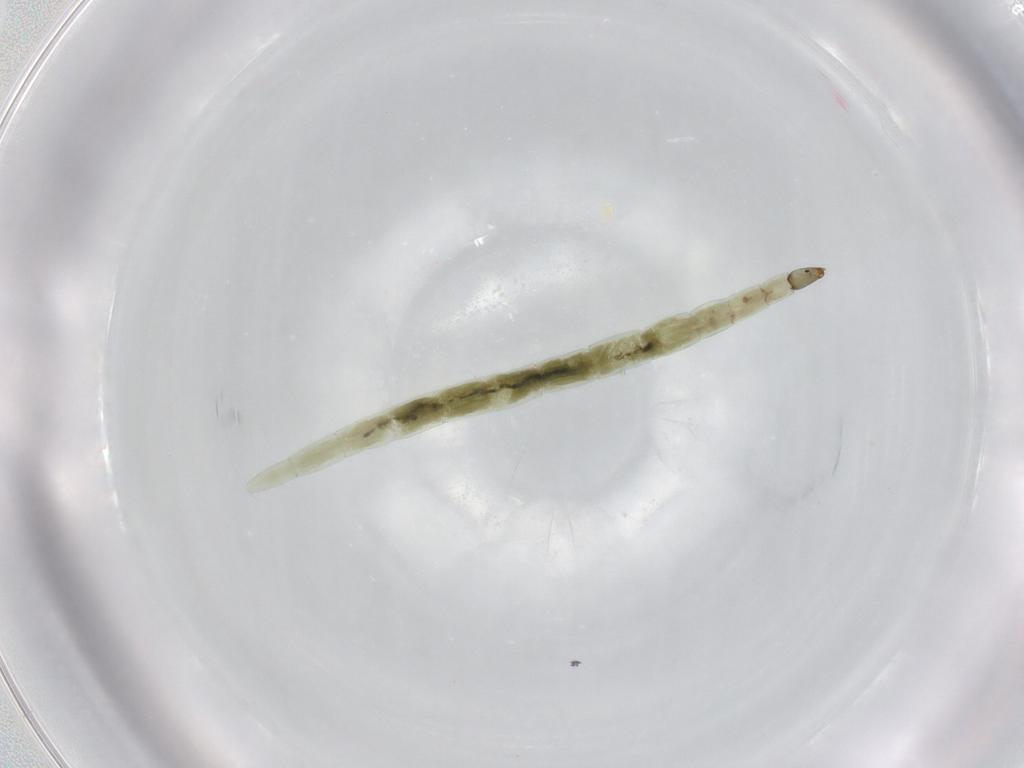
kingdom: Animalia
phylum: Arthropoda
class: Insecta
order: Diptera
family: Ceratopogonidae
